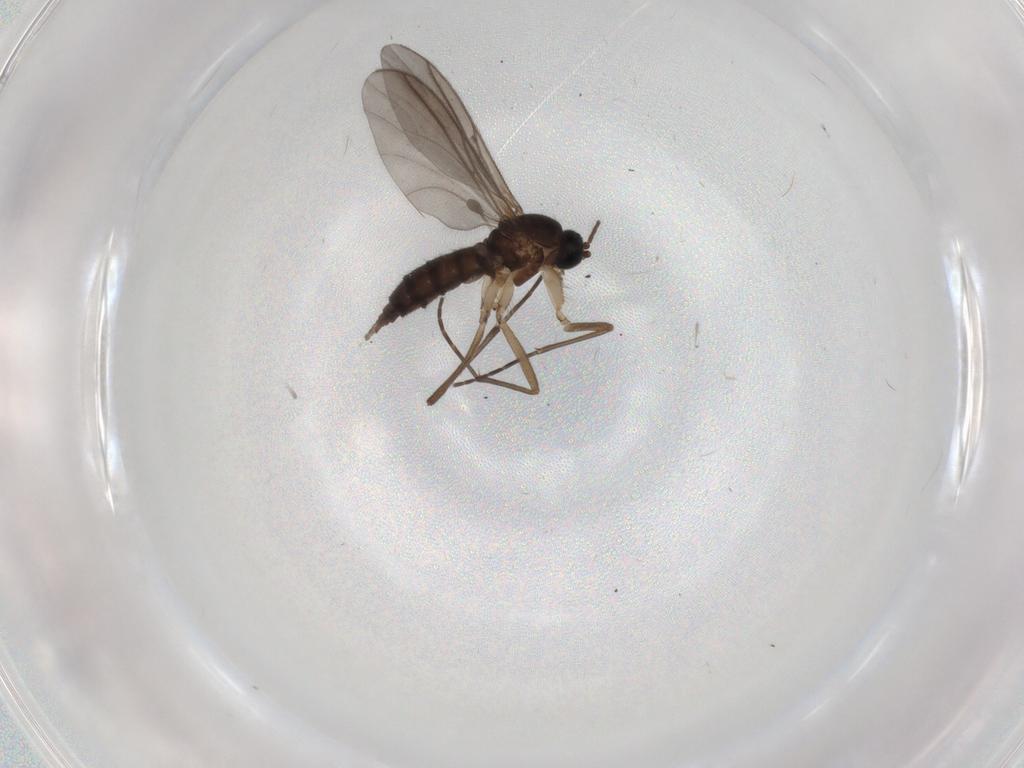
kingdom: Animalia
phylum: Arthropoda
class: Insecta
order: Diptera
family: Sciaridae
